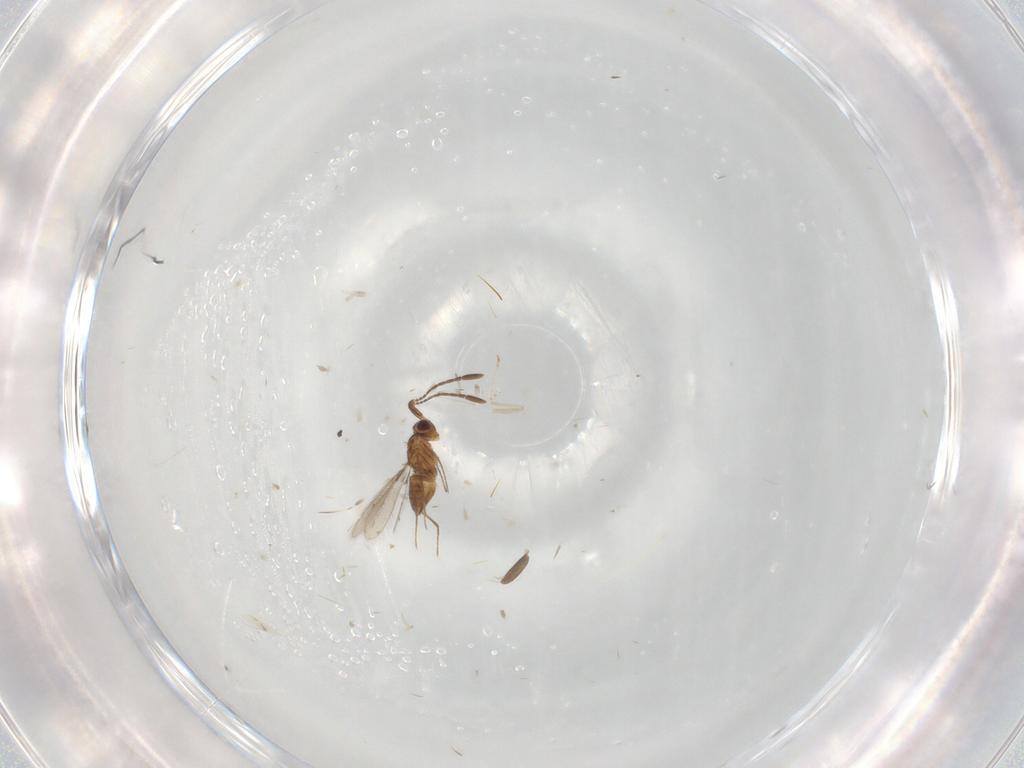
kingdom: Animalia
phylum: Arthropoda
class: Insecta
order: Hymenoptera
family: Mymaridae
